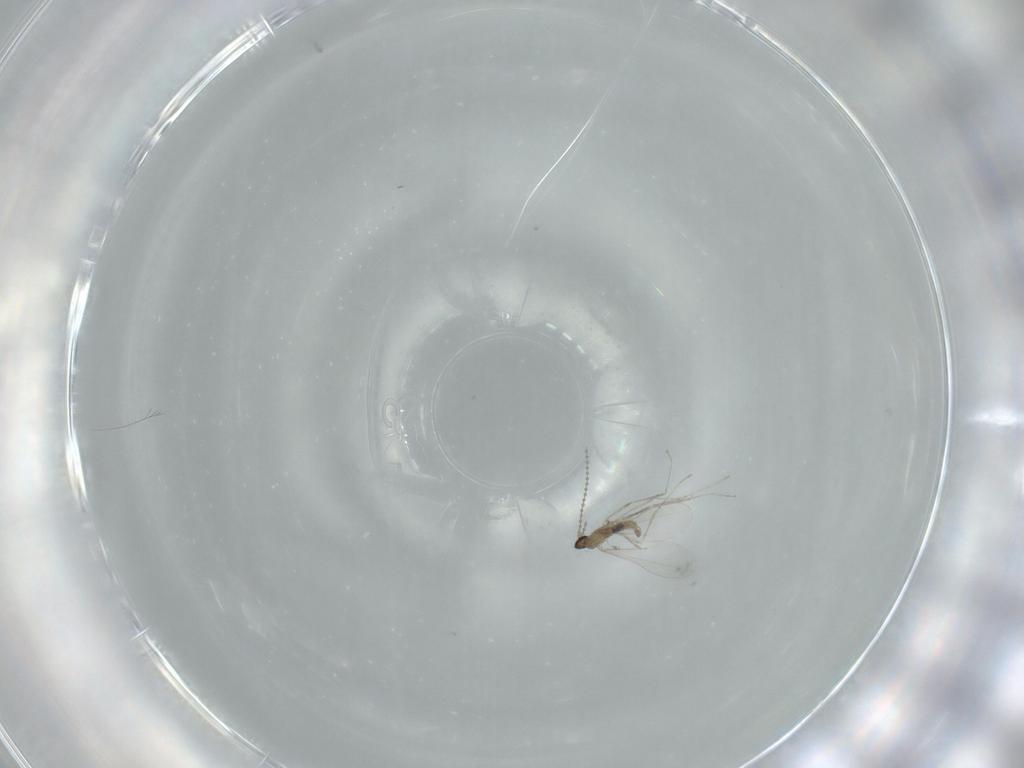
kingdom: Animalia
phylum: Arthropoda
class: Insecta
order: Diptera
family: Cecidomyiidae
